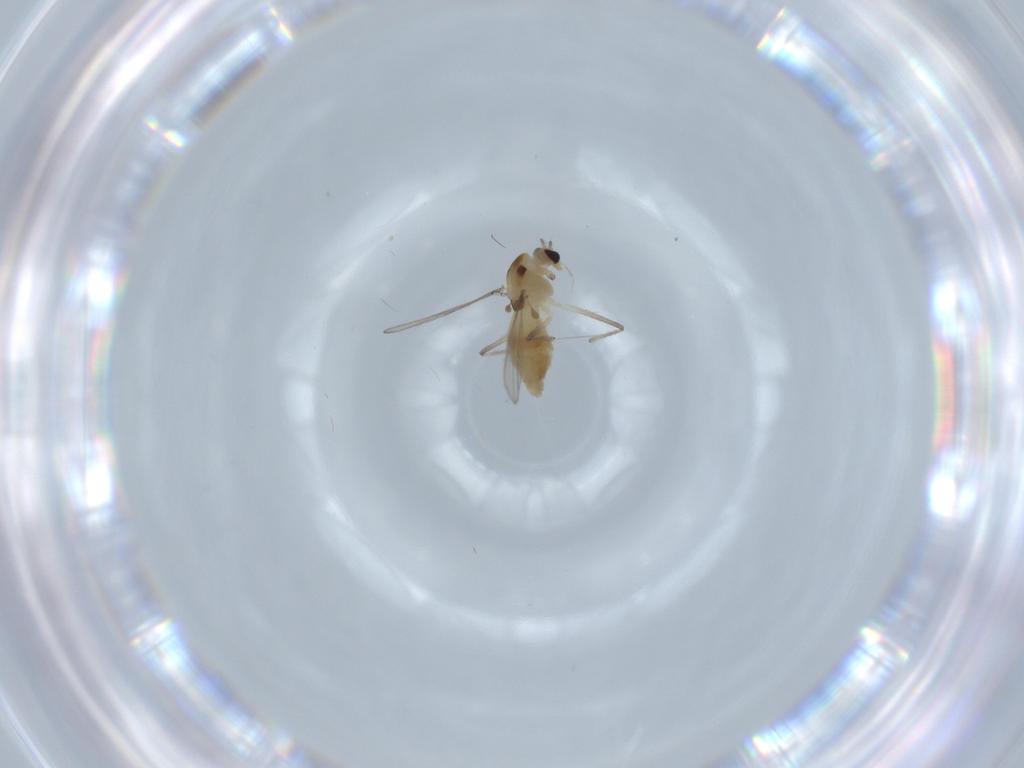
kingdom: Animalia
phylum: Arthropoda
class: Insecta
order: Diptera
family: Chironomidae
